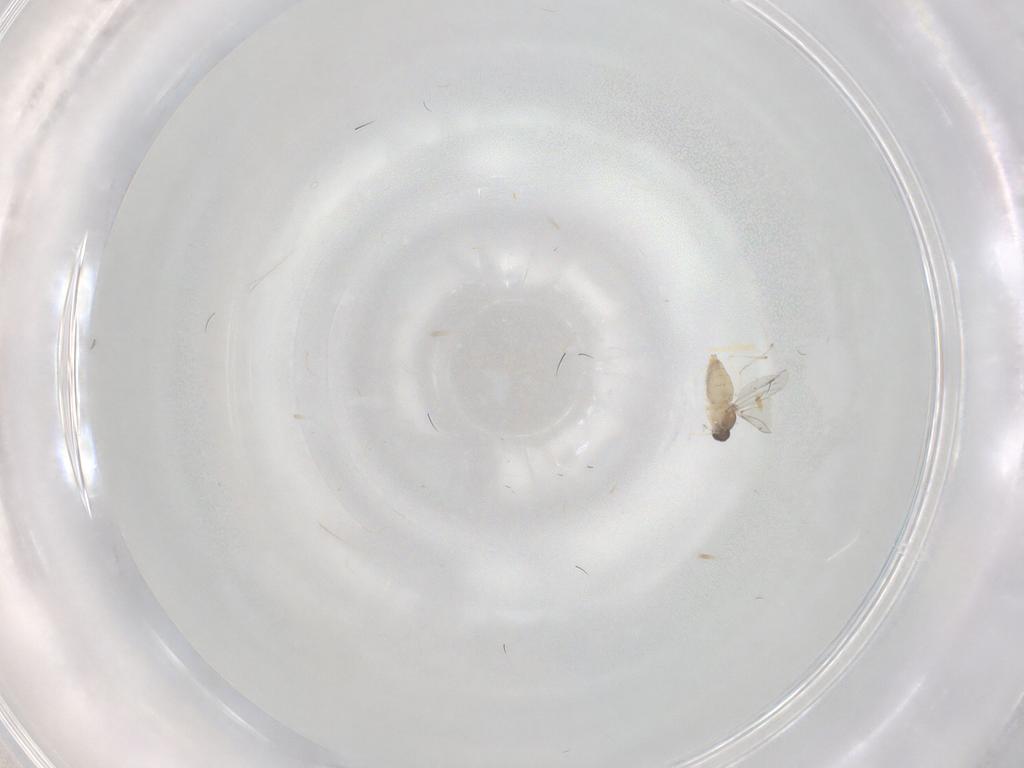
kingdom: Animalia
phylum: Arthropoda
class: Insecta
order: Diptera
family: Cecidomyiidae
